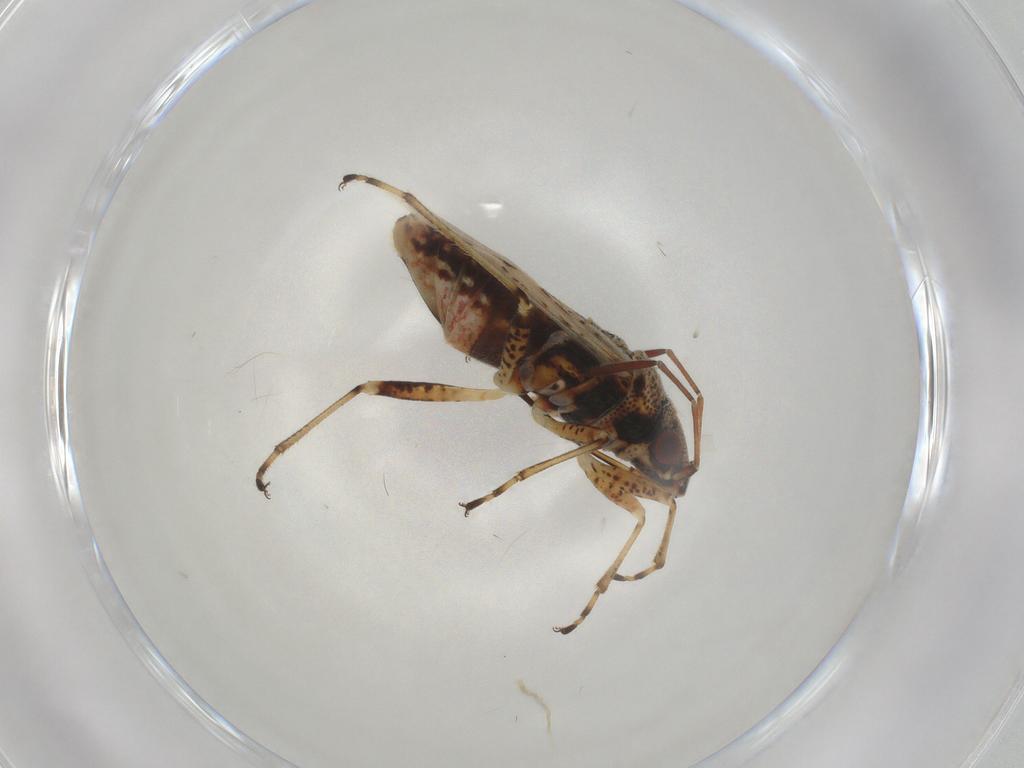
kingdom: Animalia
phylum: Arthropoda
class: Insecta
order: Hemiptera
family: Lygaeidae
